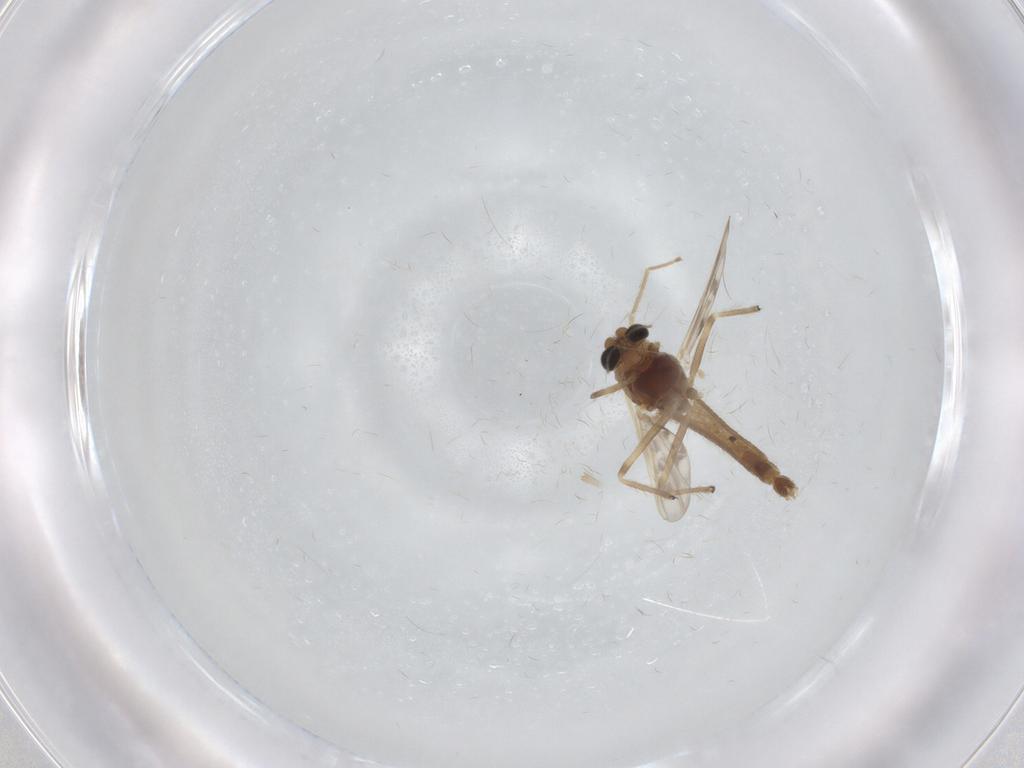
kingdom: Animalia
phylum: Arthropoda
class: Insecta
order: Diptera
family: Chironomidae
